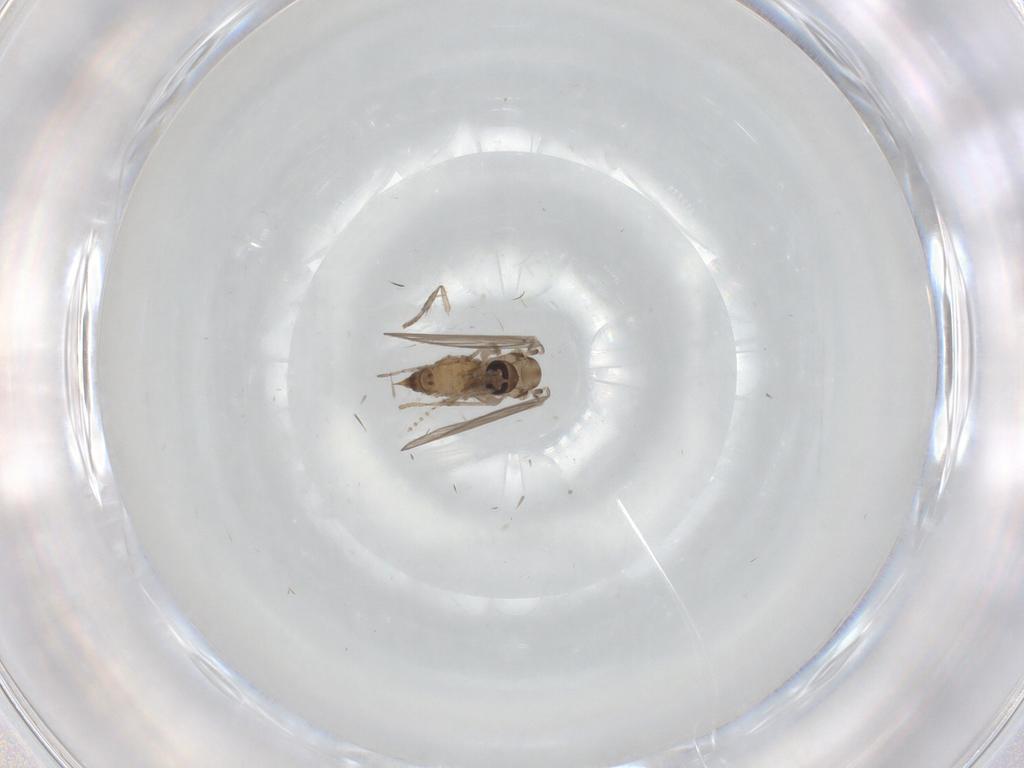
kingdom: Animalia
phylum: Arthropoda
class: Insecta
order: Diptera
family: Psychodidae
